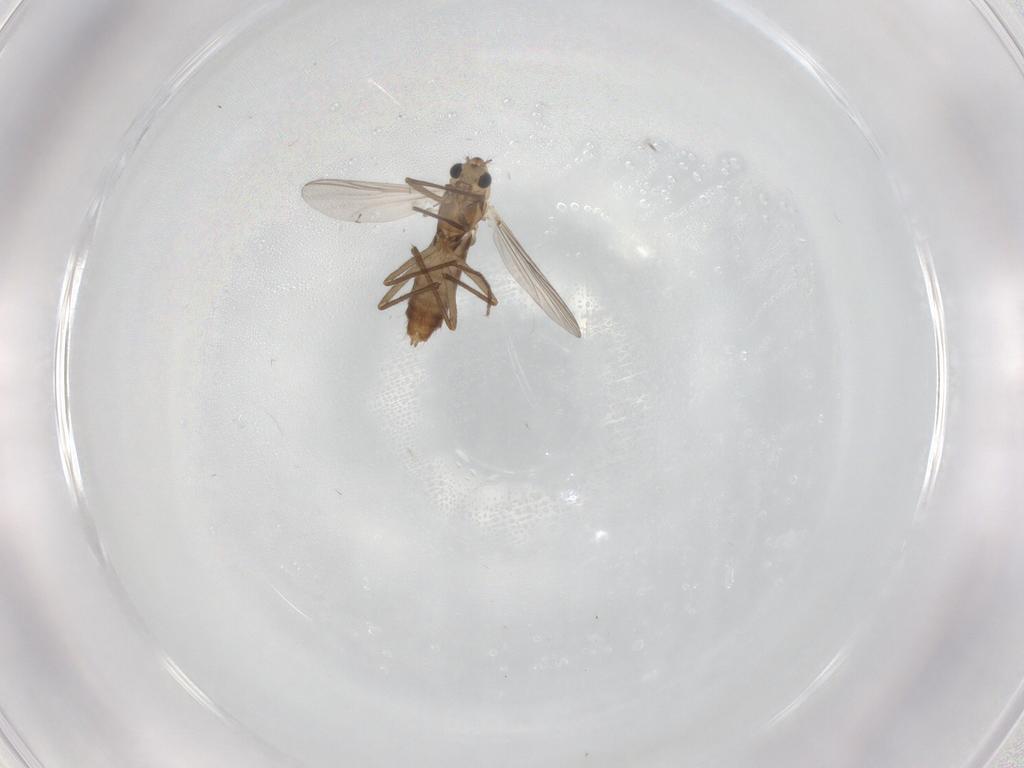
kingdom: Animalia
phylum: Arthropoda
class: Insecta
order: Diptera
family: Chironomidae
